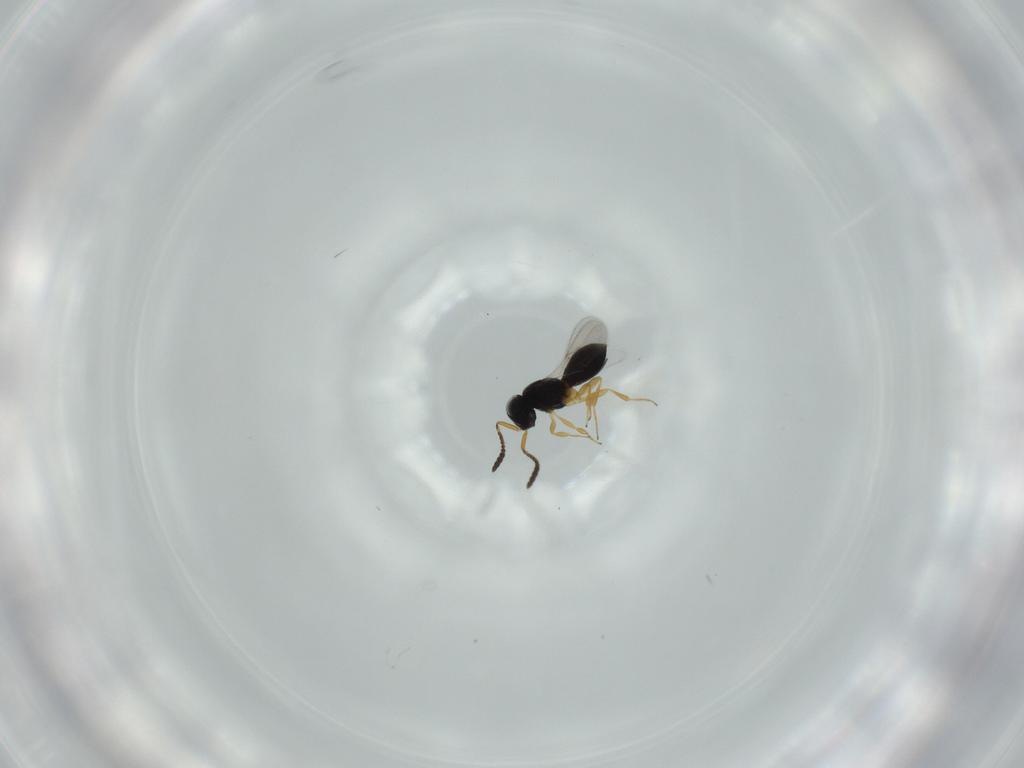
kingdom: Animalia
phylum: Arthropoda
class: Insecta
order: Hymenoptera
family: Scelionidae
